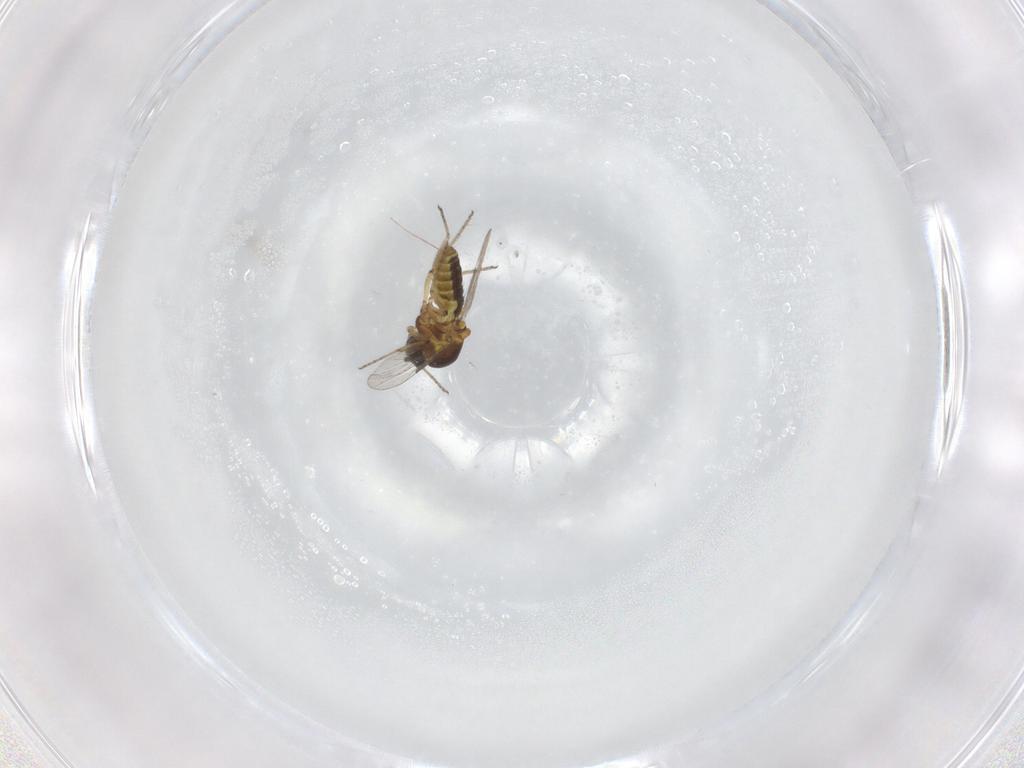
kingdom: Animalia
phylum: Arthropoda
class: Insecta
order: Diptera
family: Ceratopogonidae
